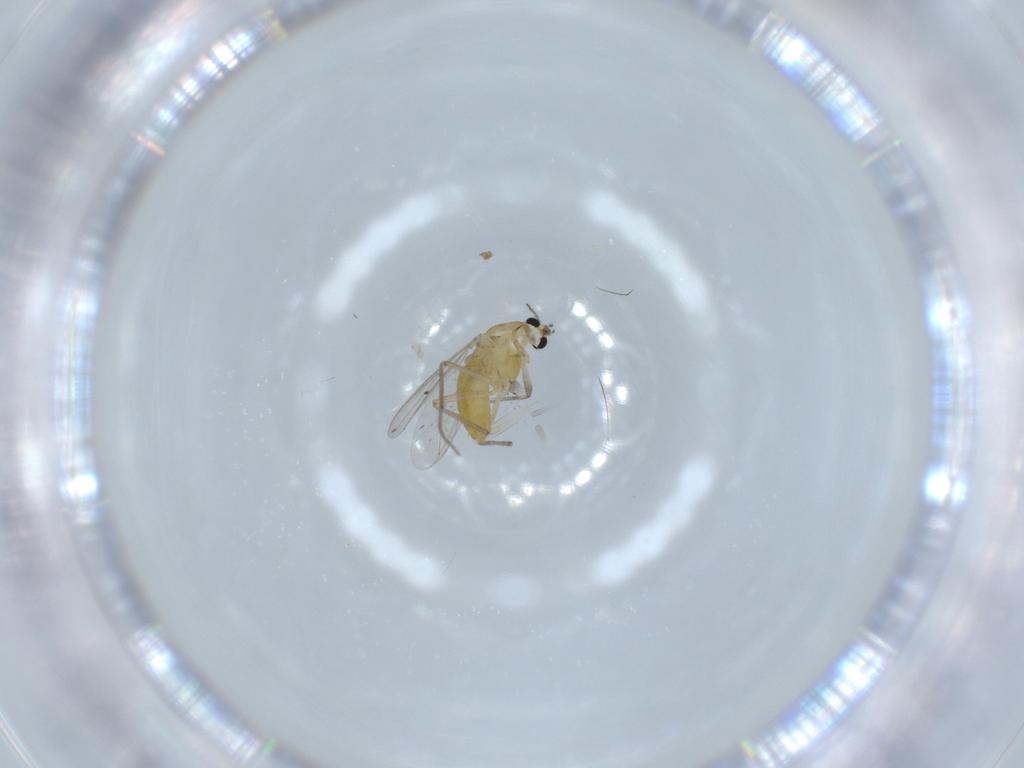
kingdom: Animalia
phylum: Arthropoda
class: Insecta
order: Diptera
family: Chironomidae
